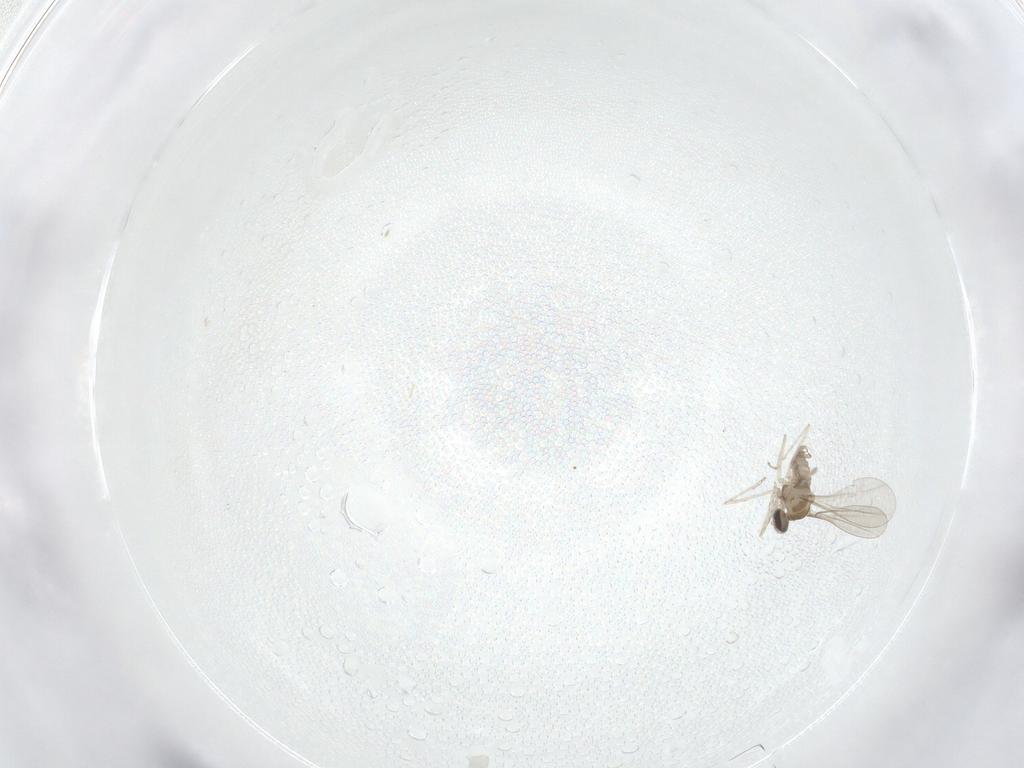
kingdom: Animalia
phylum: Arthropoda
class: Insecta
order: Diptera
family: Cecidomyiidae
